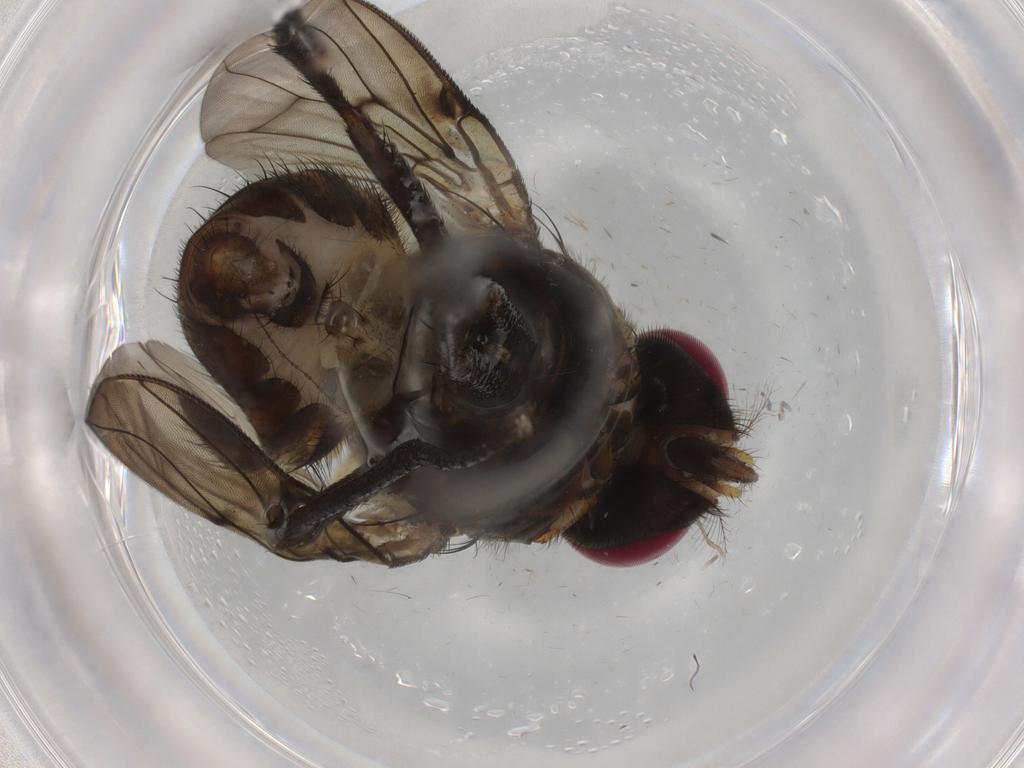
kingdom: Animalia
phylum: Arthropoda
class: Insecta
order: Diptera
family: Muscidae
